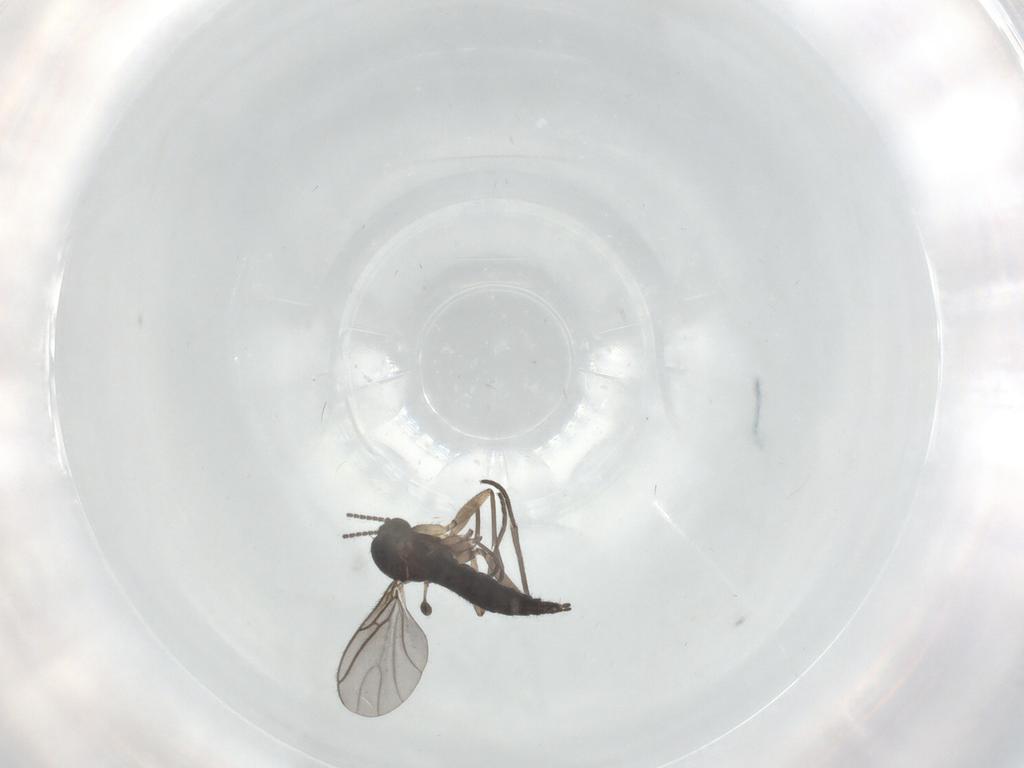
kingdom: Animalia
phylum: Arthropoda
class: Insecta
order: Diptera
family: Sciaridae
